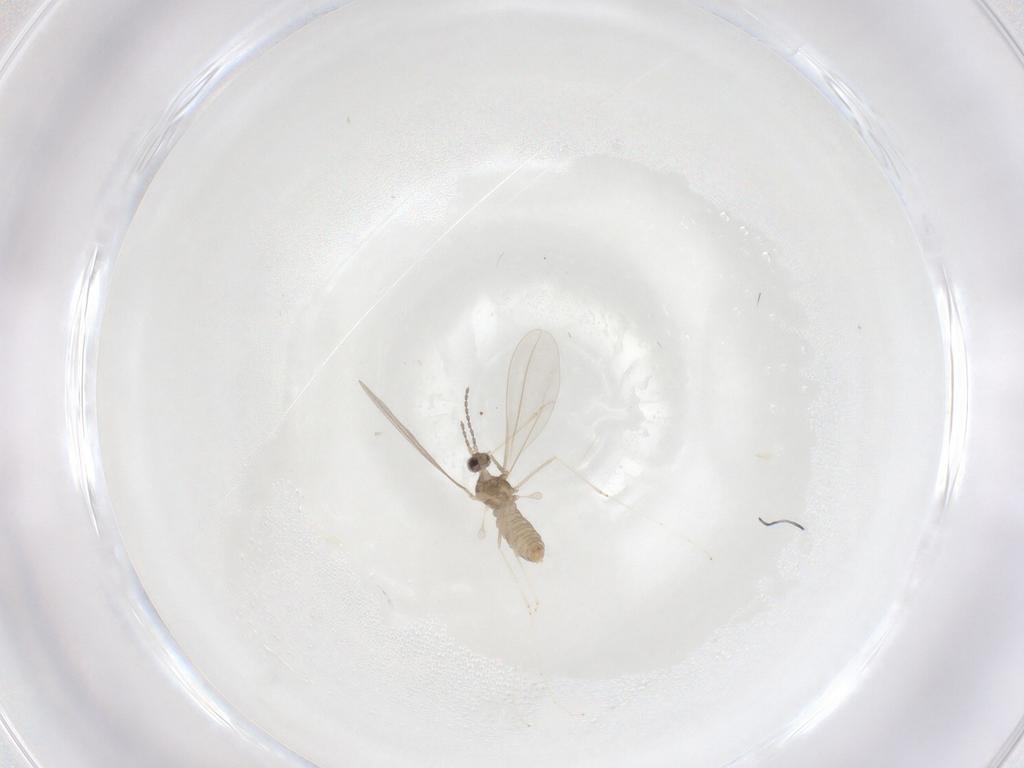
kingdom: Animalia
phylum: Arthropoda
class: Insecta
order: Diptera
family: Cecidomyiidae
